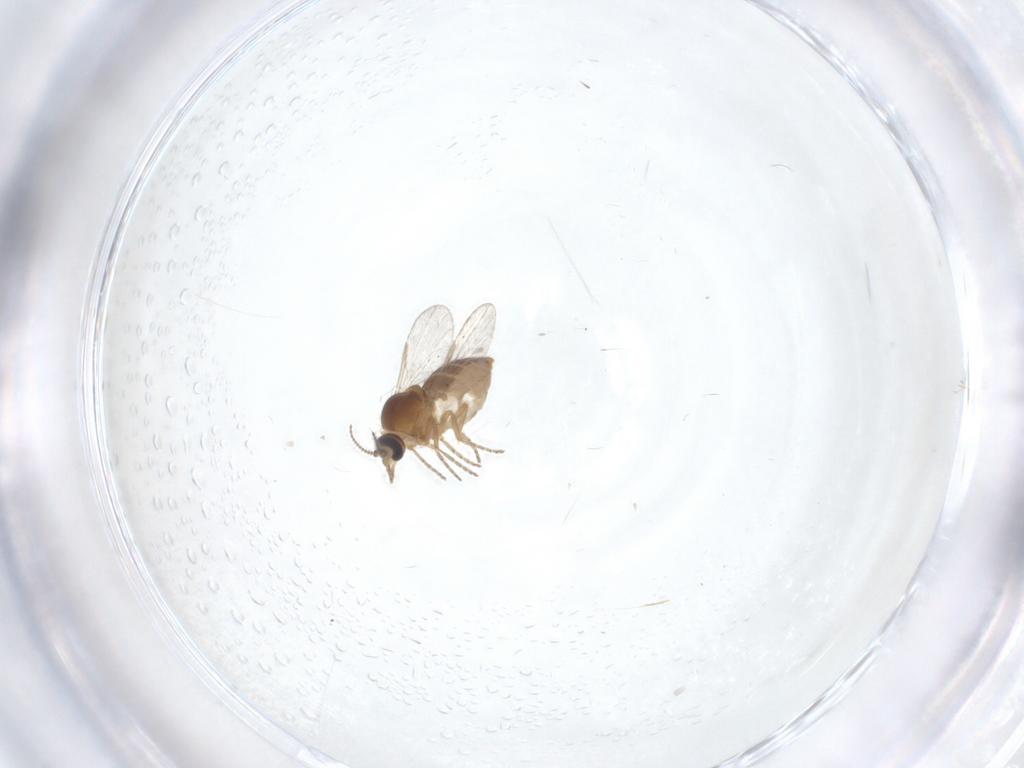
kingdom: Animalia
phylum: Arthropoda
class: Insecta
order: Diptera
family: Ceratopogonidae
